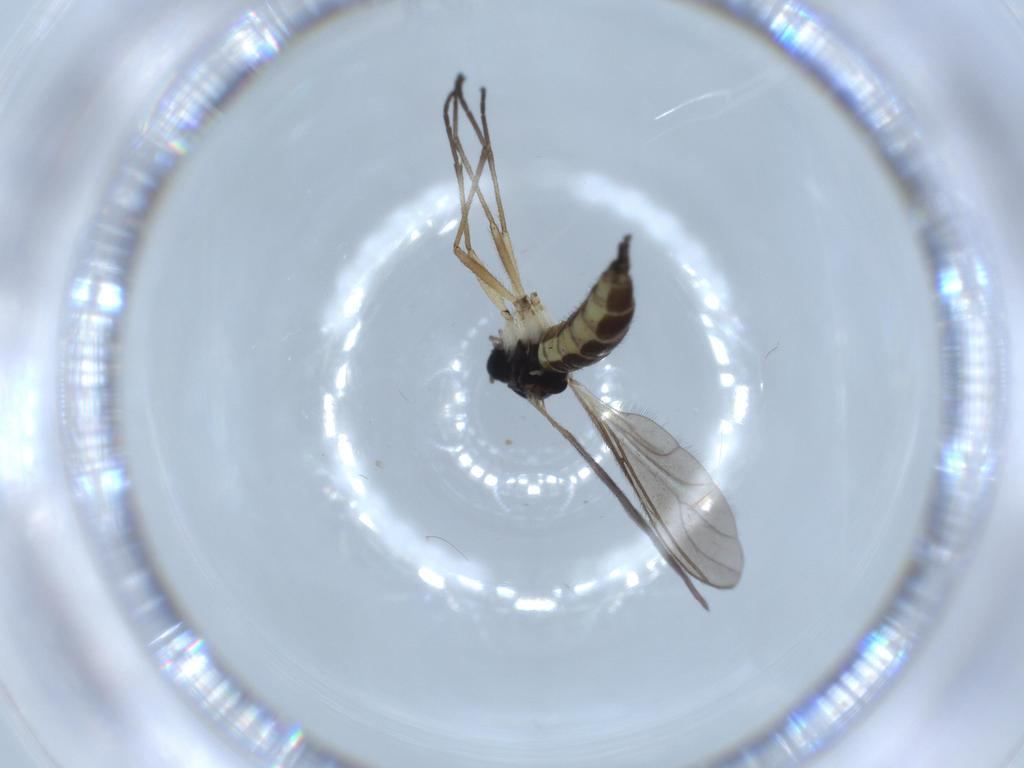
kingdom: Animalia
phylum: Arthropoda
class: Insecta
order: Diptera
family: Sciaridae
